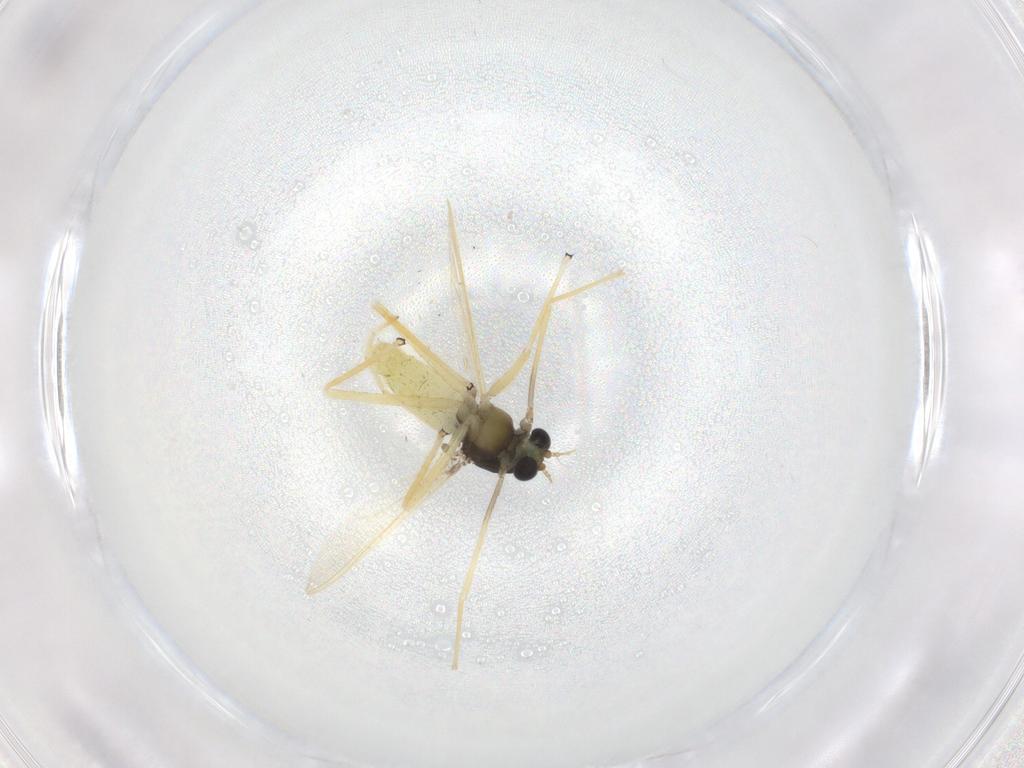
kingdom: Animalia
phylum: Arthropoda
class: Insecta
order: Diptera
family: Chironomidae
